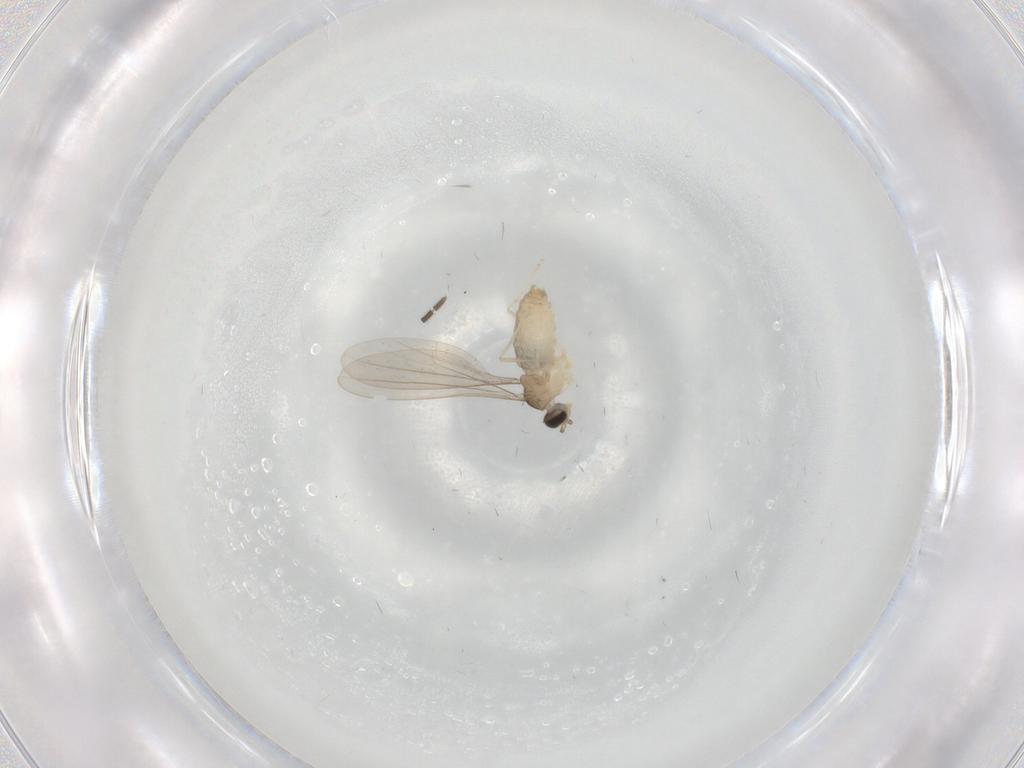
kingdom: Animalia
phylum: Arthropoda
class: Insecta
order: Diptera
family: Cecidomyiidae
